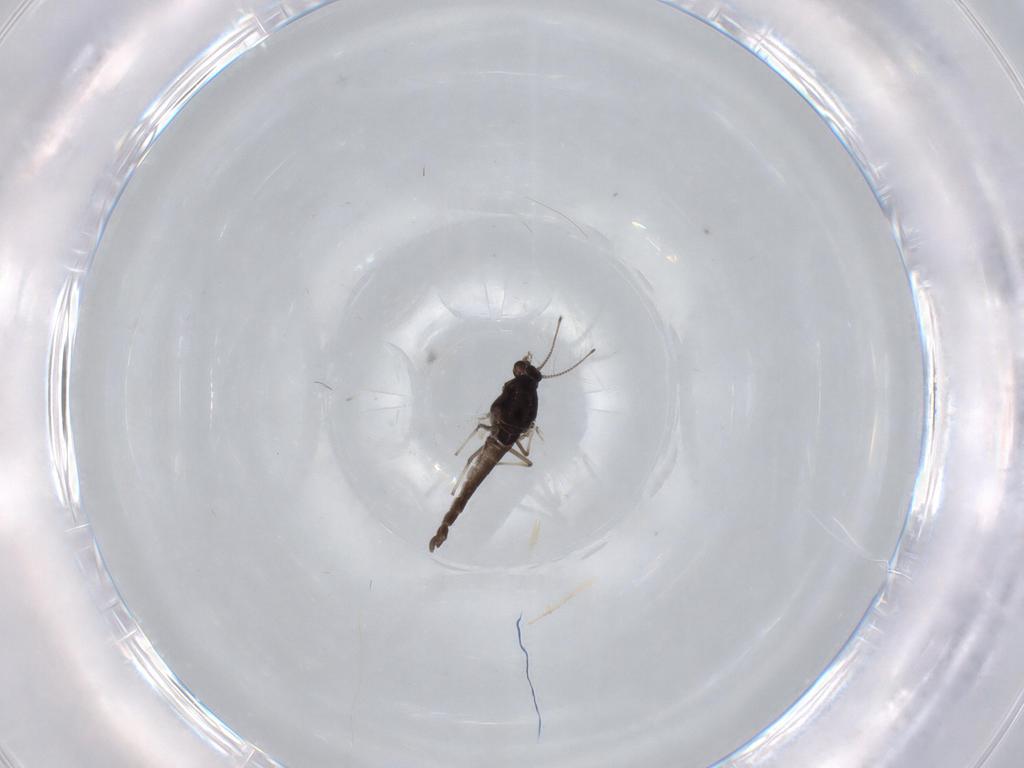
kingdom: Animalia
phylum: Arthropoda
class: Insecta
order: Diptera
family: Chironomidae
